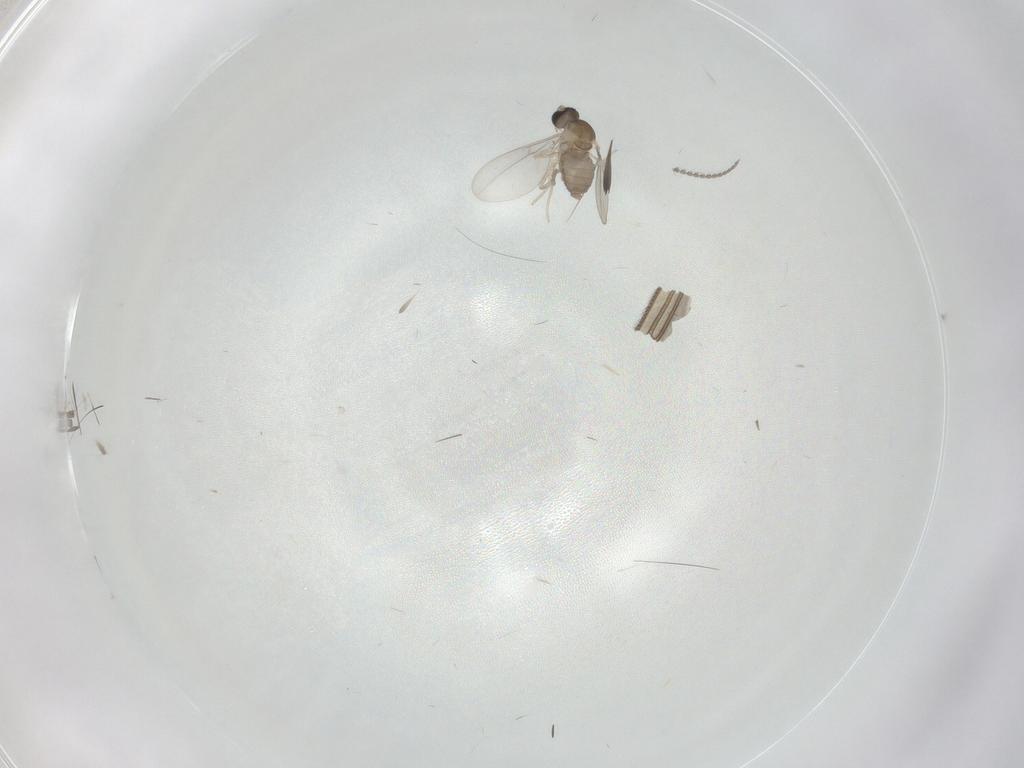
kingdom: Animalia
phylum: Arthropoda
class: Insecta
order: Diptera
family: Cecidomyiidae
